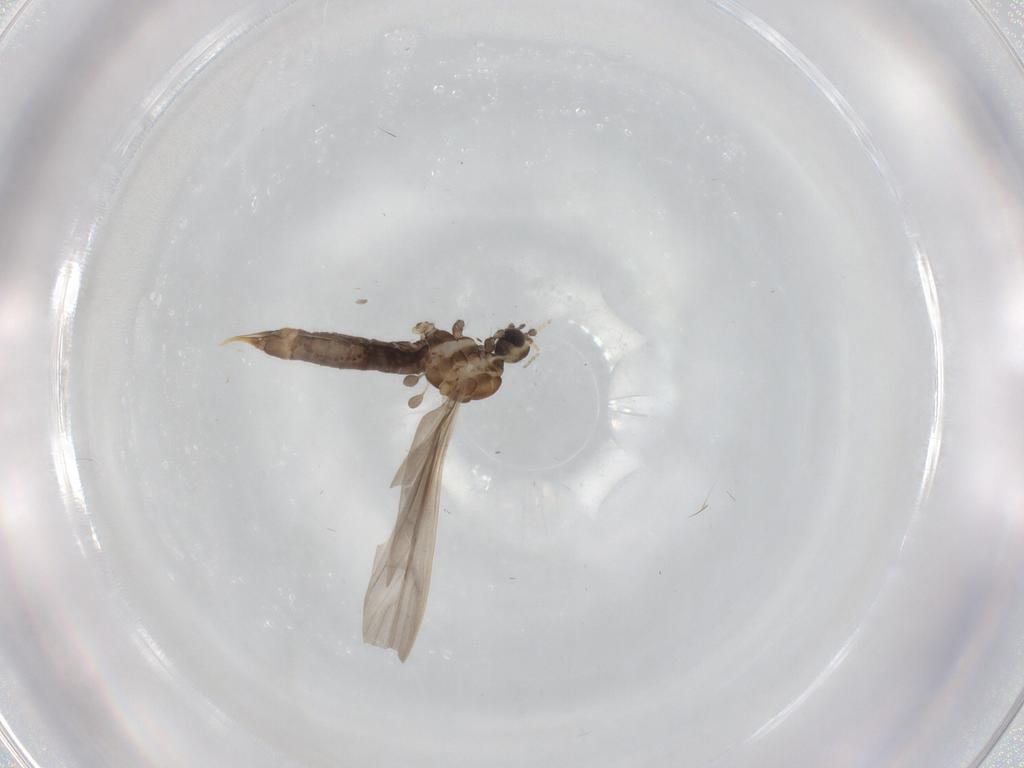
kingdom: Animalia
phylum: Arthropoda
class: Insecta
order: Diptera
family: Limoniidae
